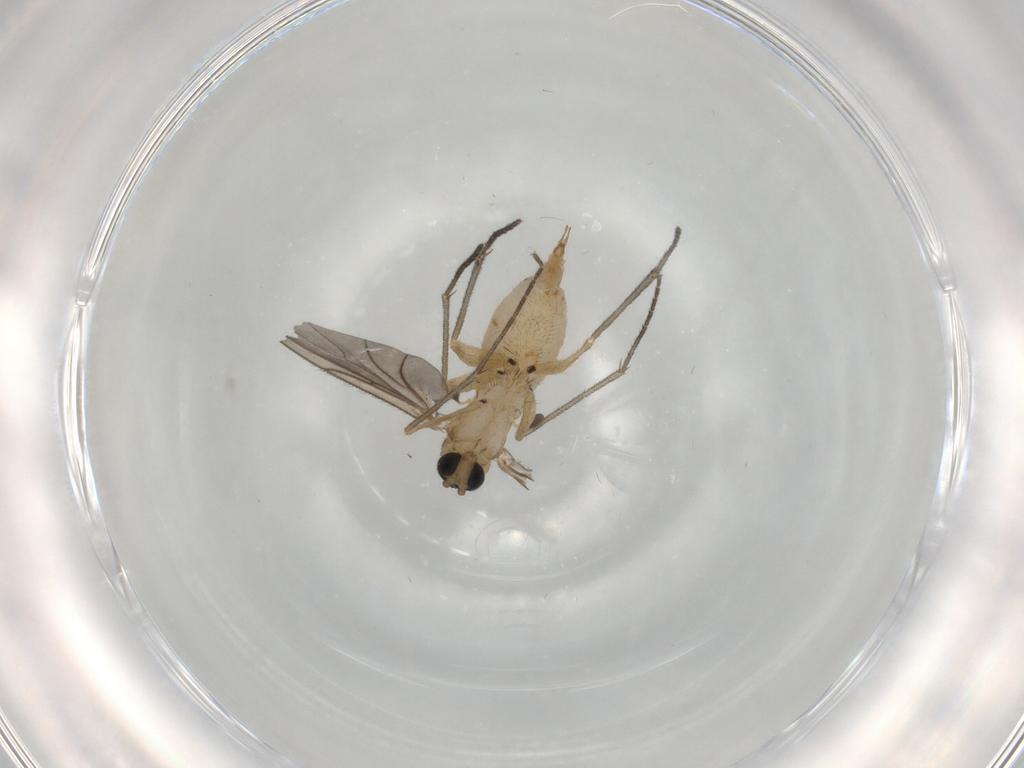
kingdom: Animalia
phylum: Arthropoda
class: Insecta
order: Diptera
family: Sciaridae
